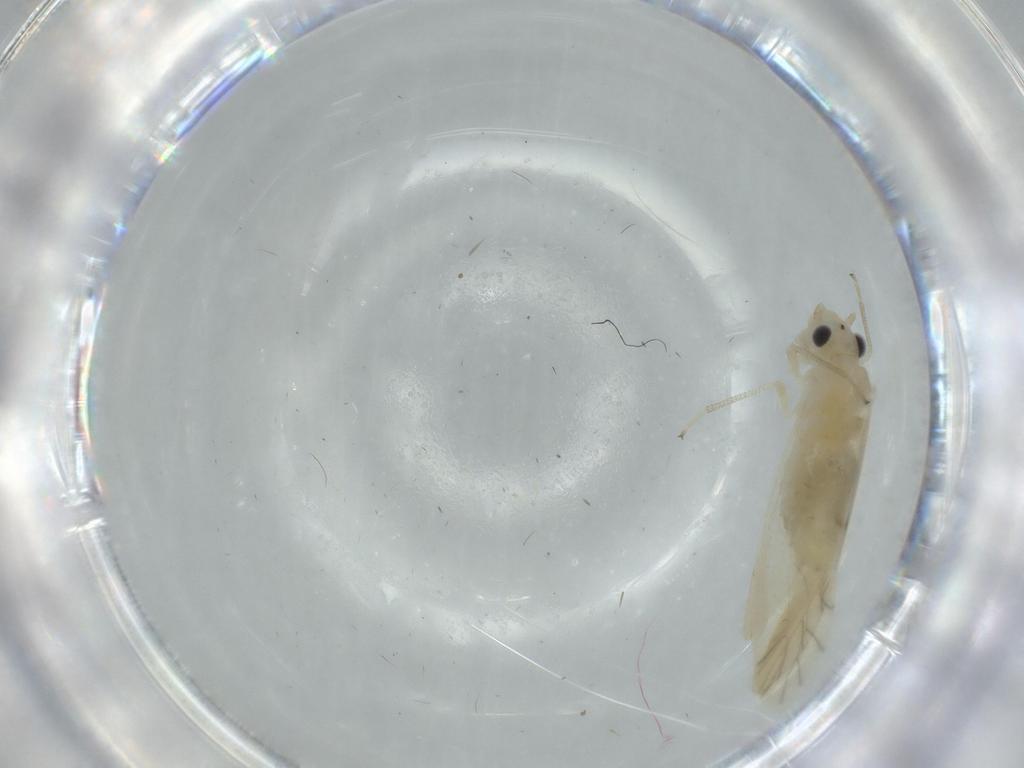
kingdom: Animalia
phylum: Arthropoda
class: Insecta
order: Psocodea
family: Caeciliusidae
